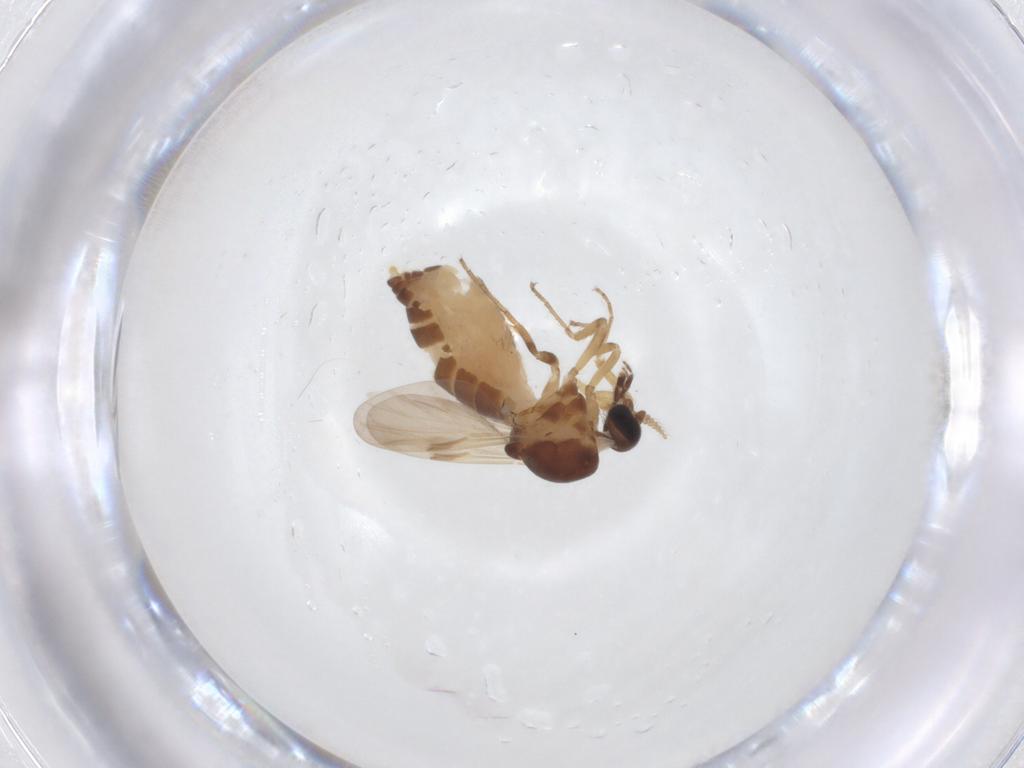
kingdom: Animalia
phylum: Arthropoda
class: Insecta
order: Diptera
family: Ceratopogonidae
